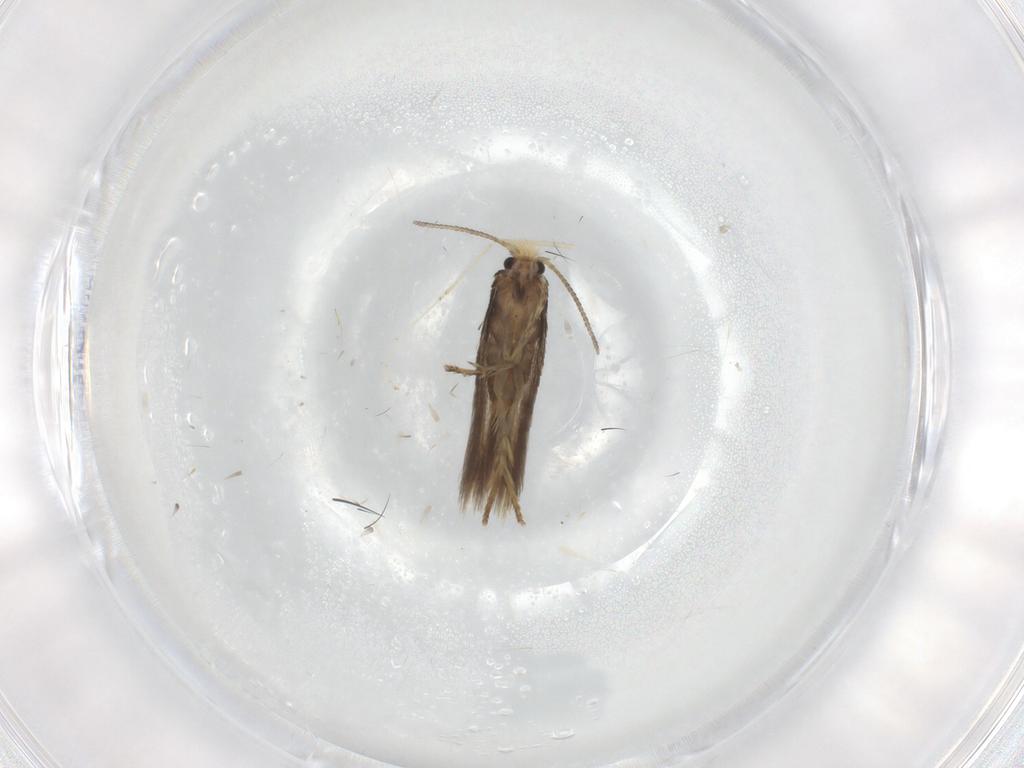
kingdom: Animalia
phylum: Arthropoda
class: Insecta
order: Lepidoptera
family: Nepticulidae
